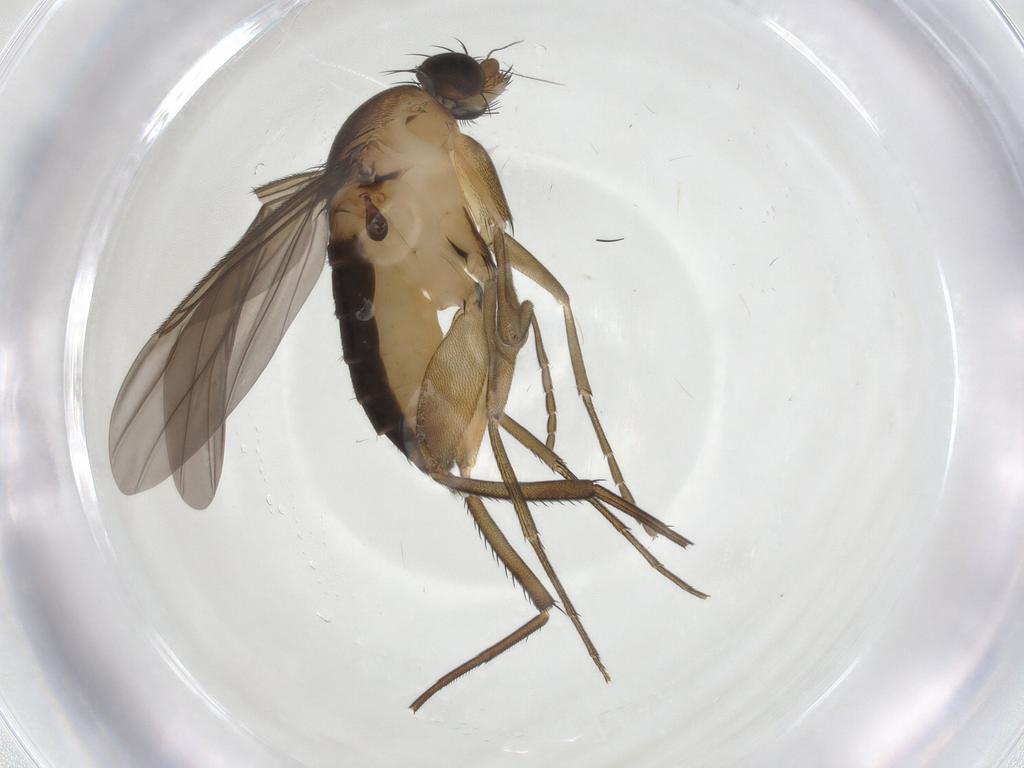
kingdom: Animalia
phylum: Arthropoda
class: Insecta
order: Diptera
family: Phoridae
